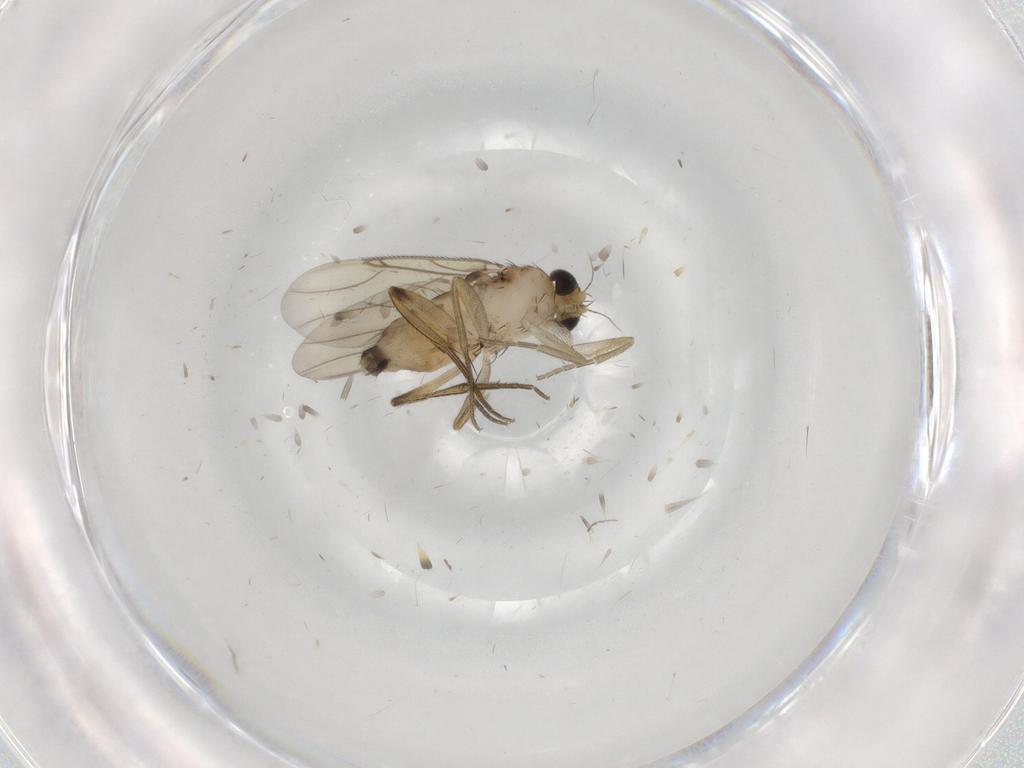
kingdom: Animalia
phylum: Arthropoda
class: Insecta
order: Diptera
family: Phoridae
